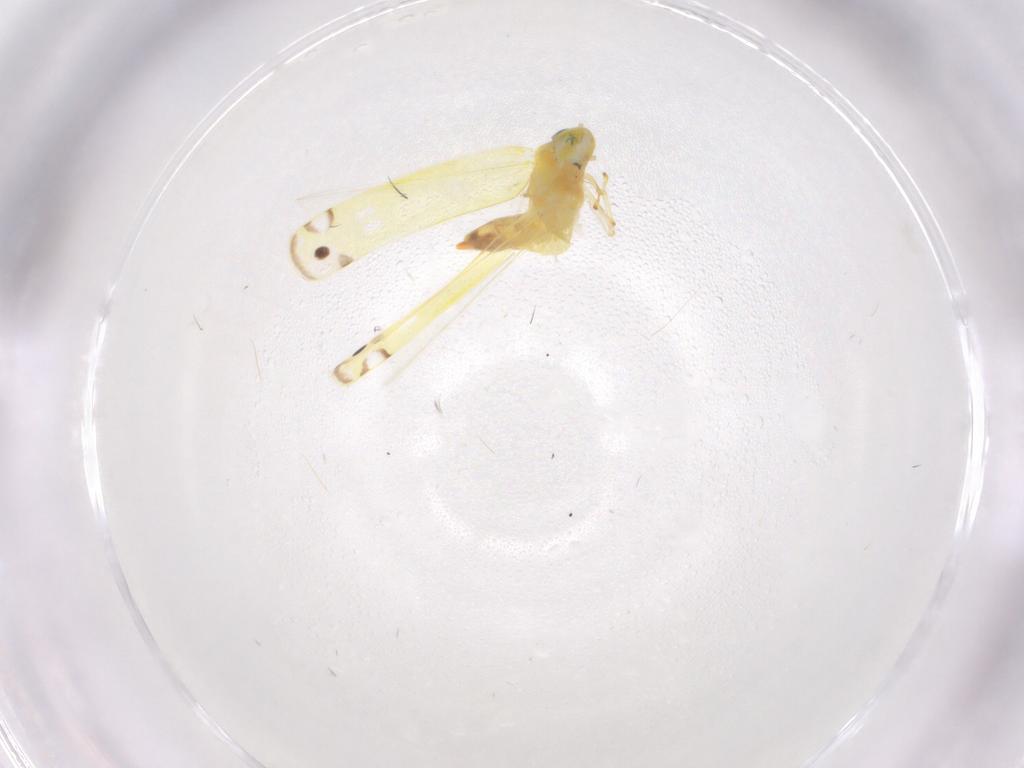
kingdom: Animalia
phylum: Arthropoda
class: Insecta
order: Hemiptera
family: Cicadellidae
